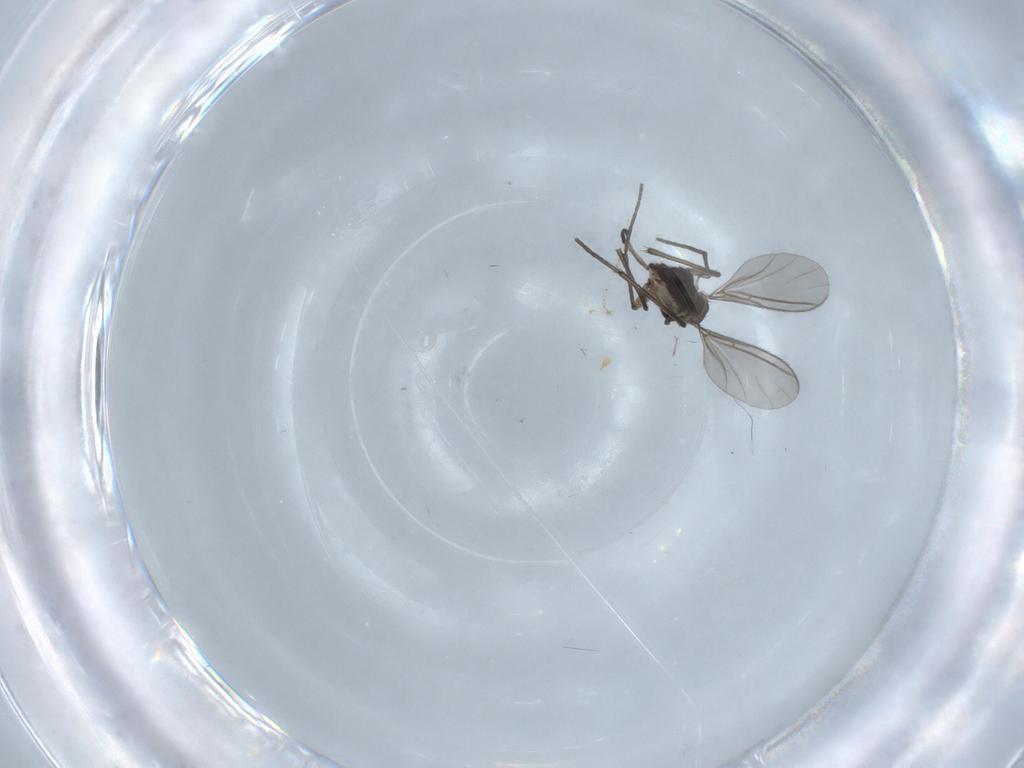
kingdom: Animalia
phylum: Arthropoda
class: Insecta
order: Diptera
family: Sciaridae
